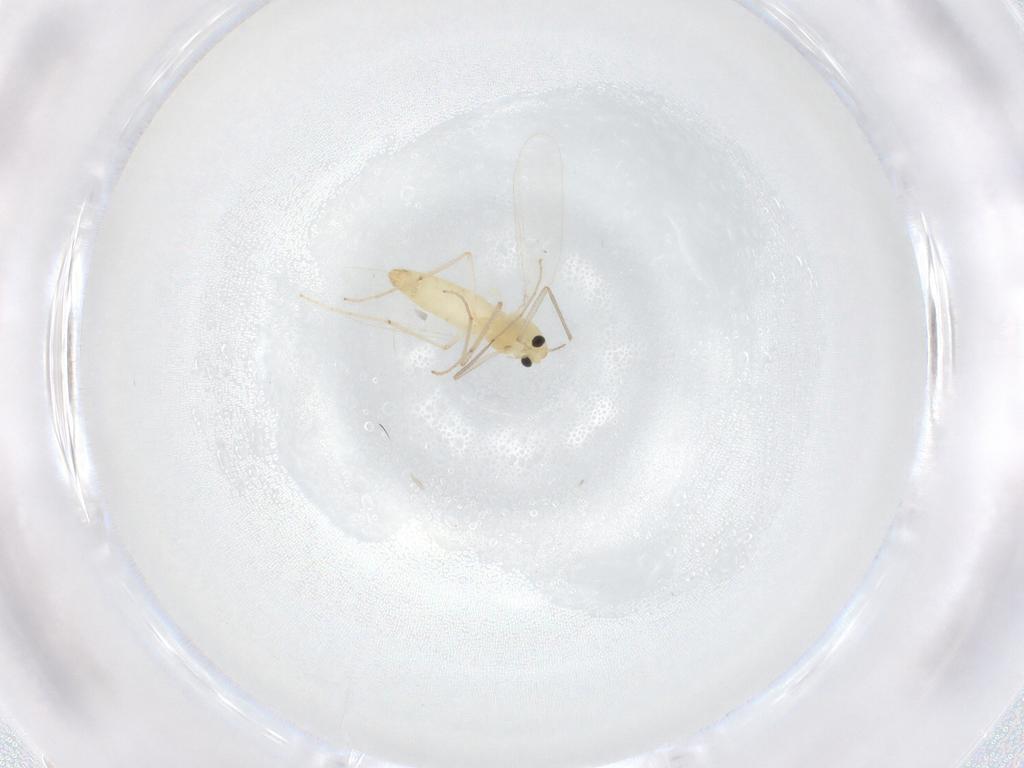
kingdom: Animalia
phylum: Arthropoda
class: Insecta
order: Diptera
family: Chironomidae
